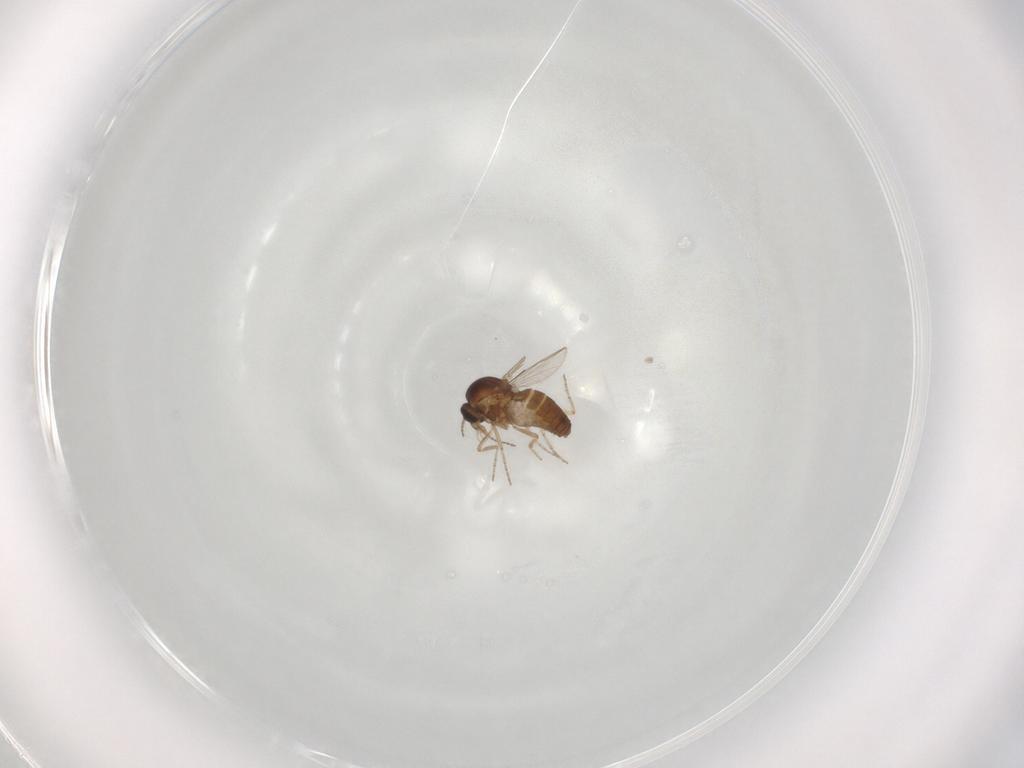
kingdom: Animalia
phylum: Arthropoda
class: Insecta
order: Diptera
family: Ceratopogonidae
